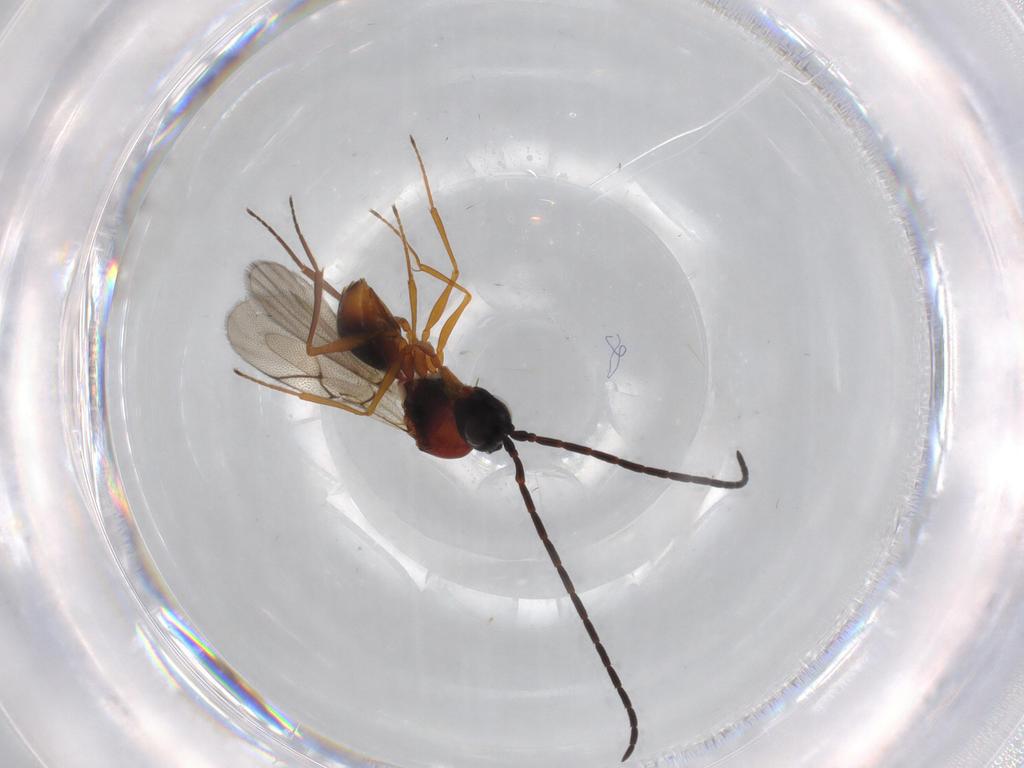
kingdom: Animalia
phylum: Arthropoda
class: Insecta
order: Hymenoptera
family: Figitidae
